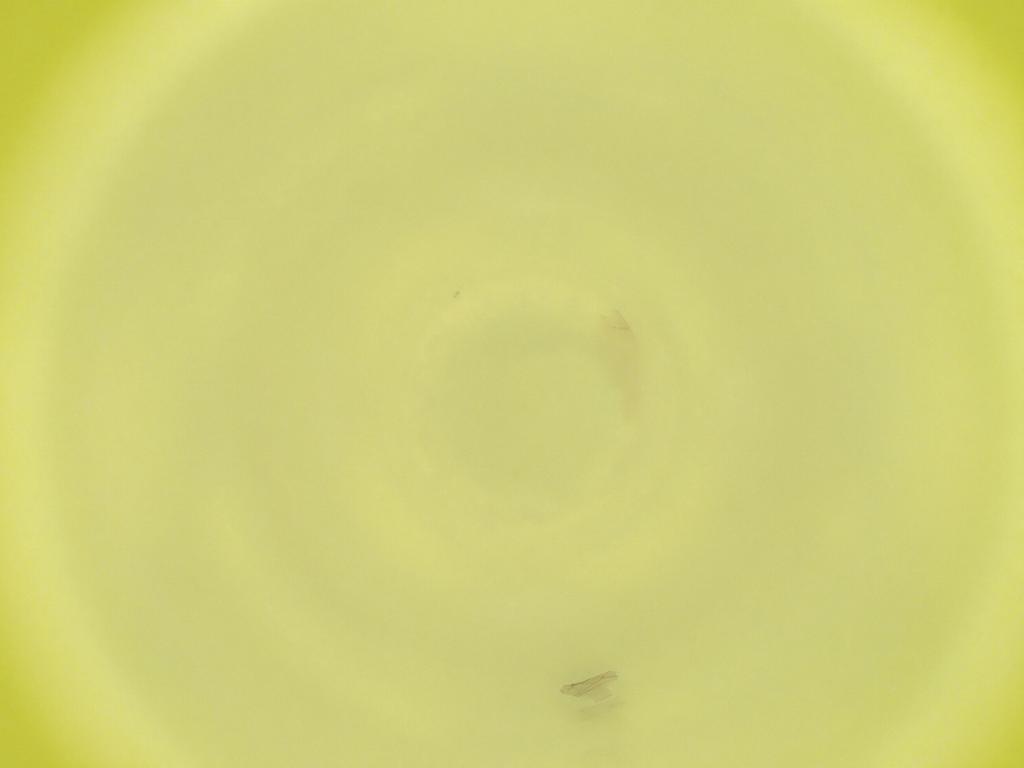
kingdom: Animalia
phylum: Arthropoda
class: Insecta
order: Diptera
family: Cecidomyiidae
